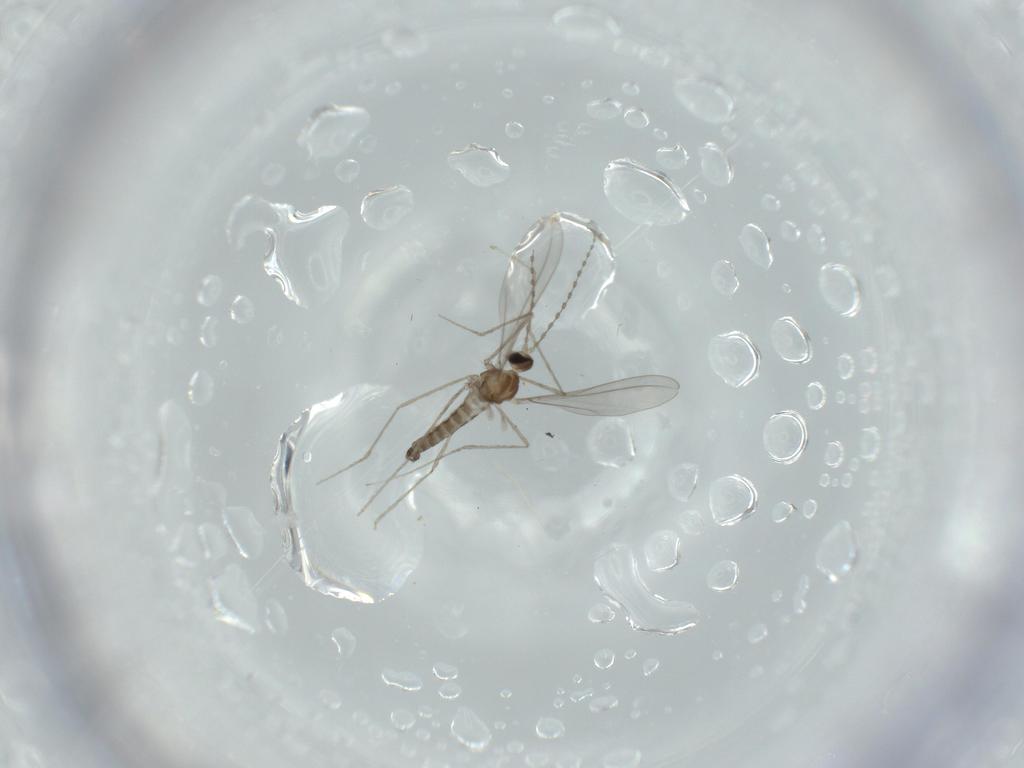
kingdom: Animalia
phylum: Arthropoda
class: Insecta
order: Diptera
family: Cecidomyiidae
